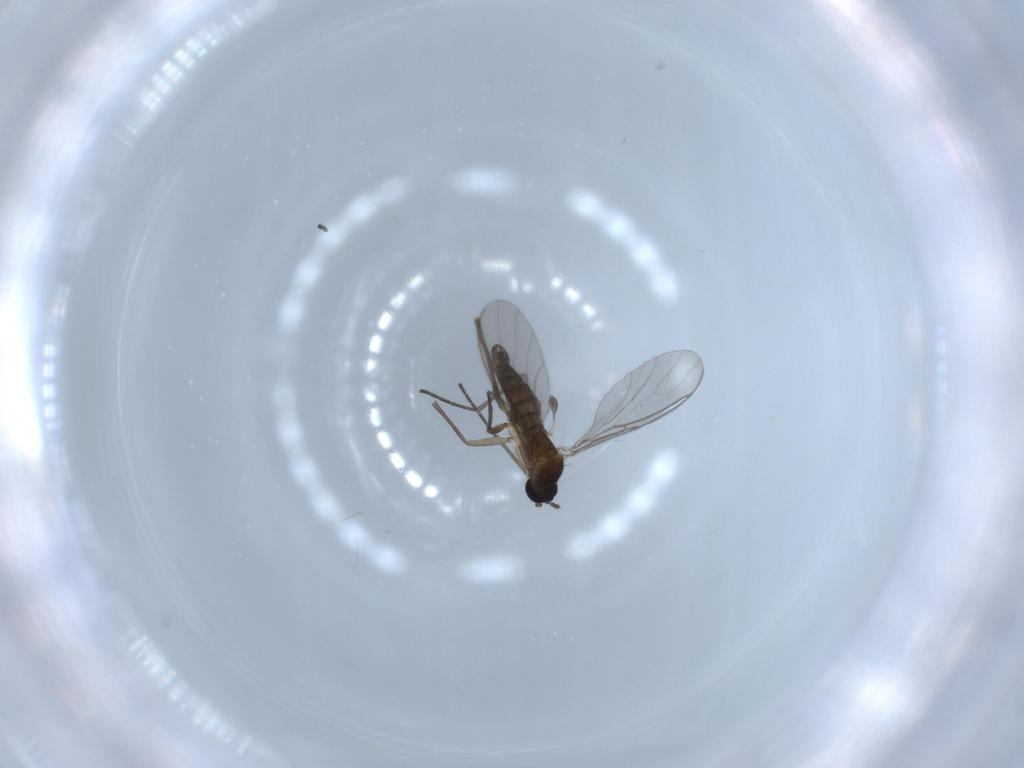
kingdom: Animalia
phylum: Arthropoda
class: Insecta
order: Diptera
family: Sciaridae
